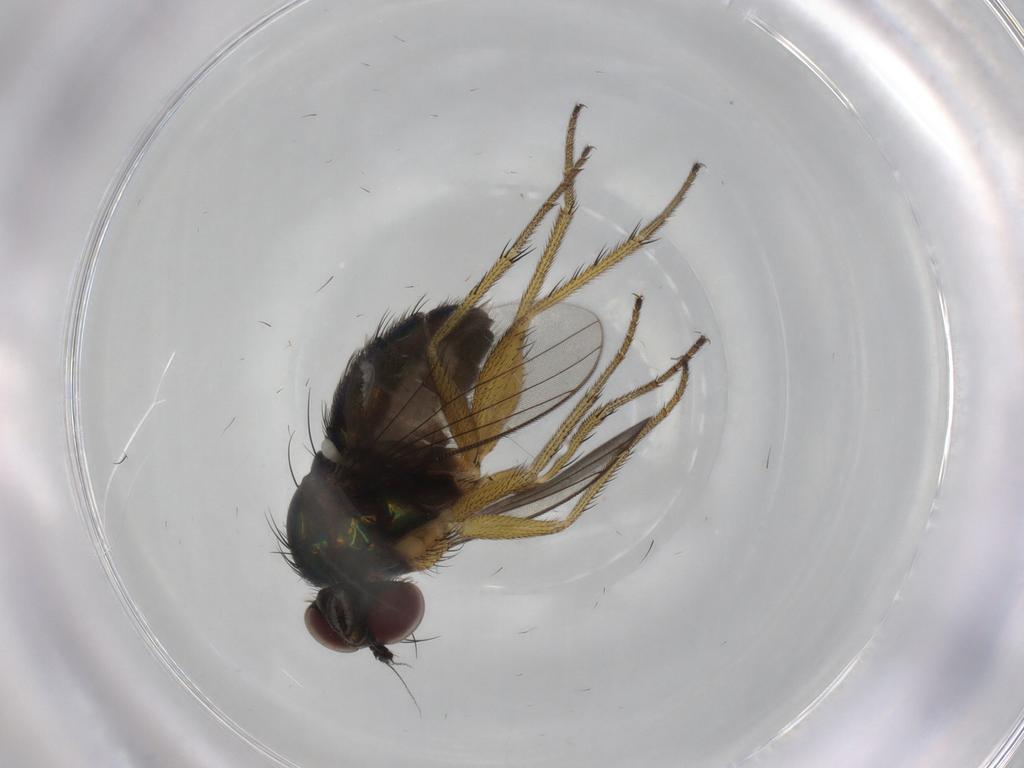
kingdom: Animalia
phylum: Arthropoda
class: Insecta
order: Diptera
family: Dolichopodidae
